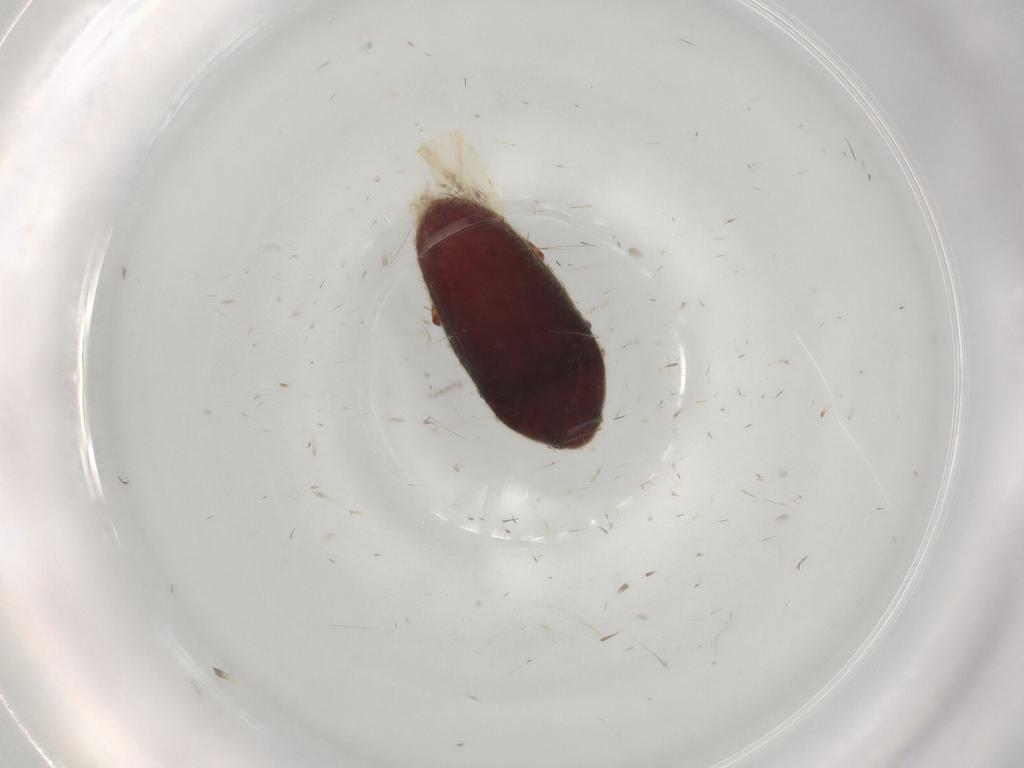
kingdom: Animalia
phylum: Arthropoda
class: Insecta
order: Coleoptera
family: Throscidae
